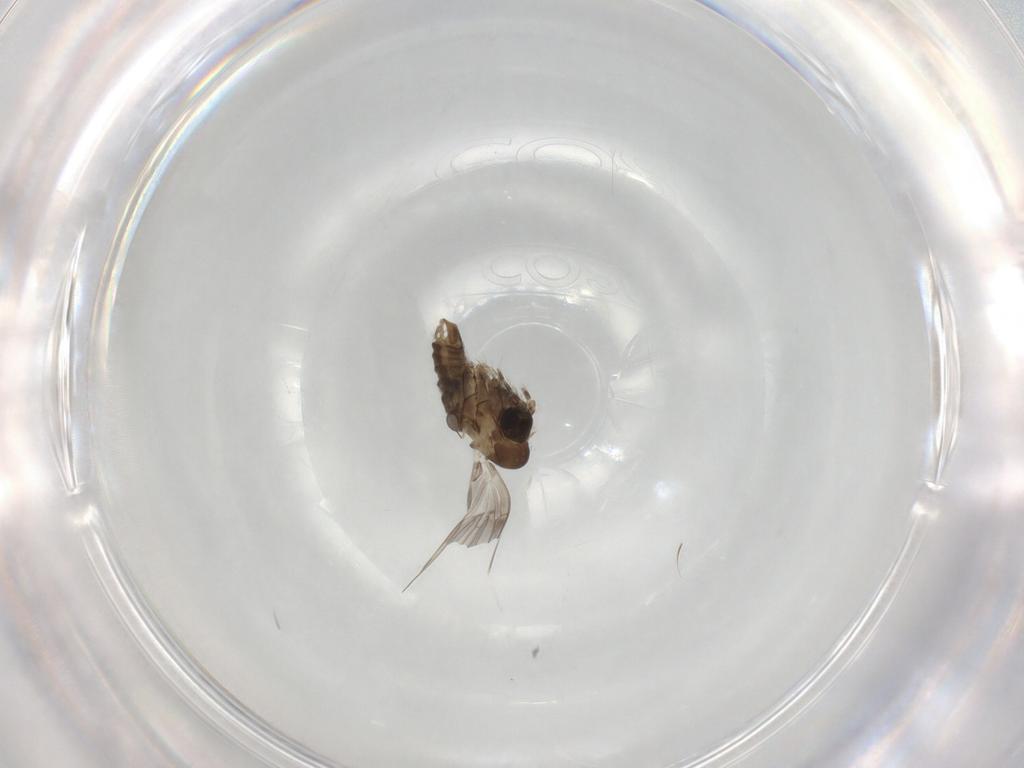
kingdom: Animalia
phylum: Arthropoda
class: Insecta
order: Diptera
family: Psychodidae
